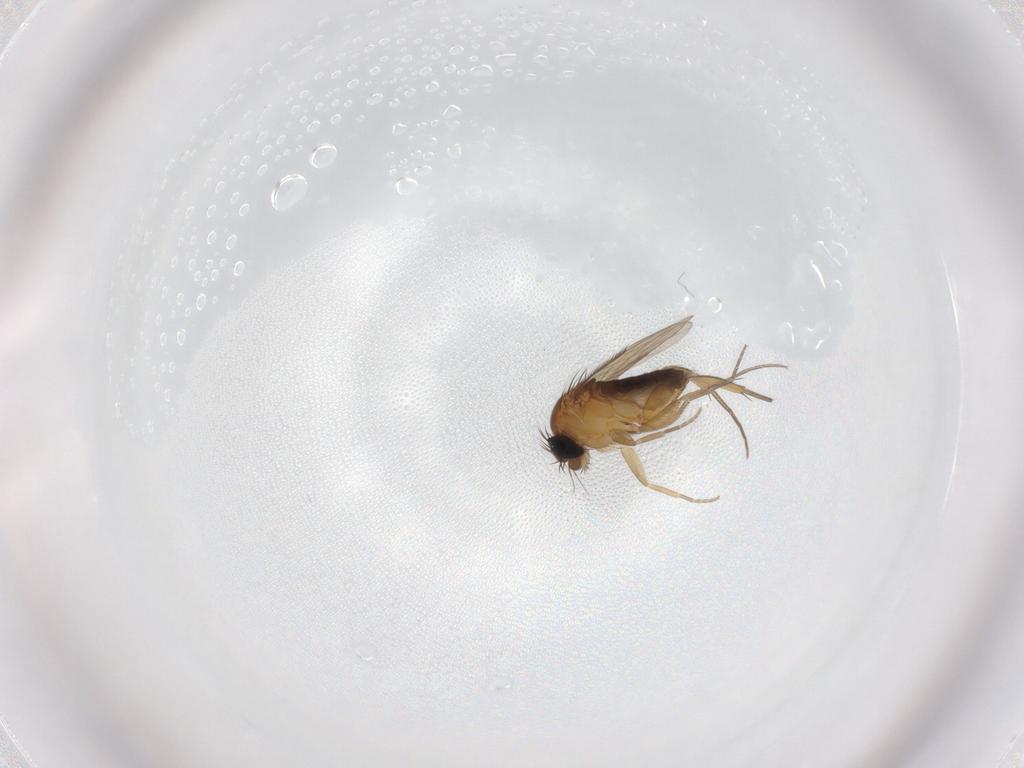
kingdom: Animalia
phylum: Arthropoda
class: Insecta
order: Diptera
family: Phoridae
